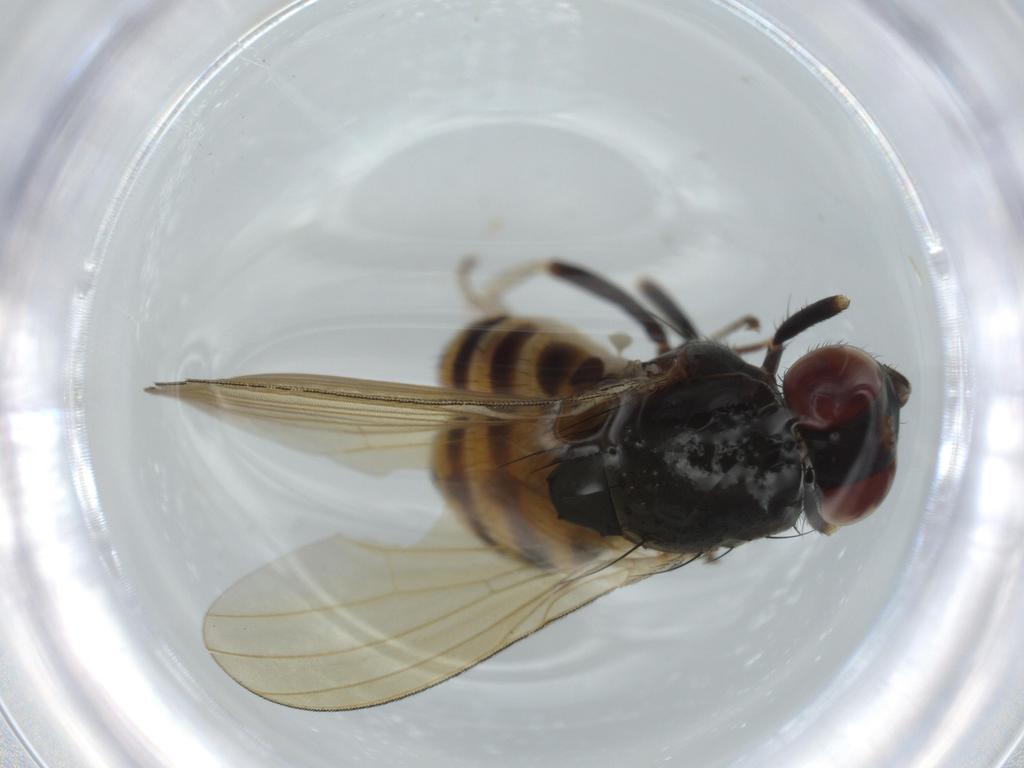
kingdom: Animalia
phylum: Arthropoda
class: Insecta
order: Diptera
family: Lauxaniidae
